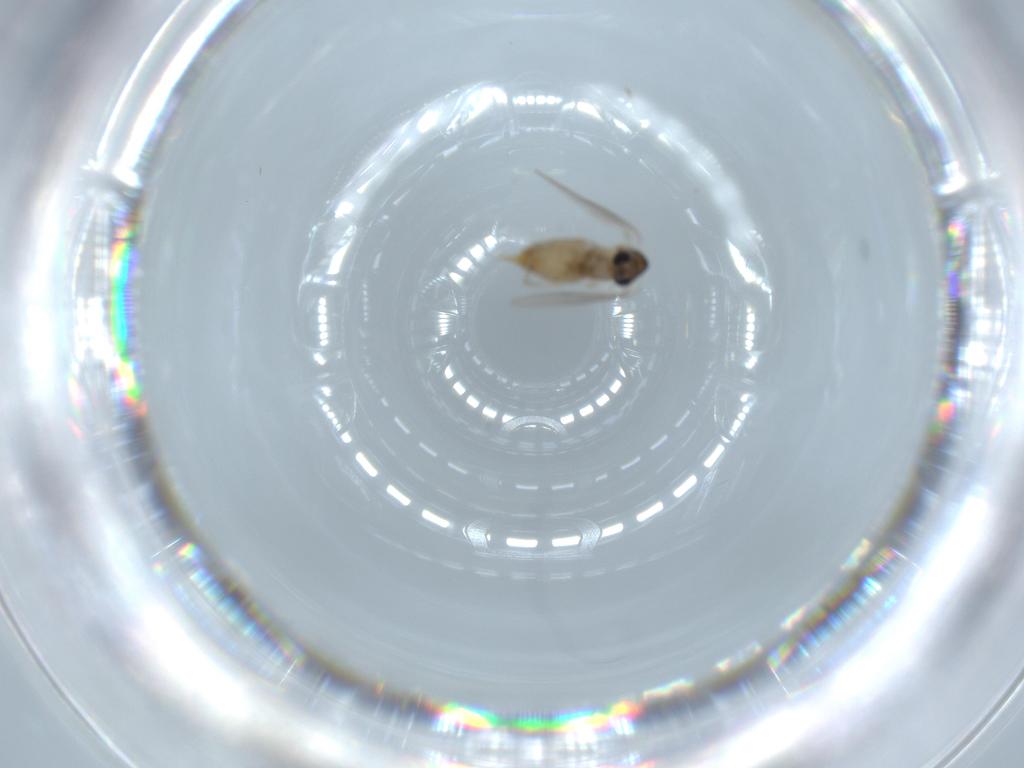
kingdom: Animalia
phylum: Arthropoda
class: Insecta
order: Diptera
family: Psychodidae
